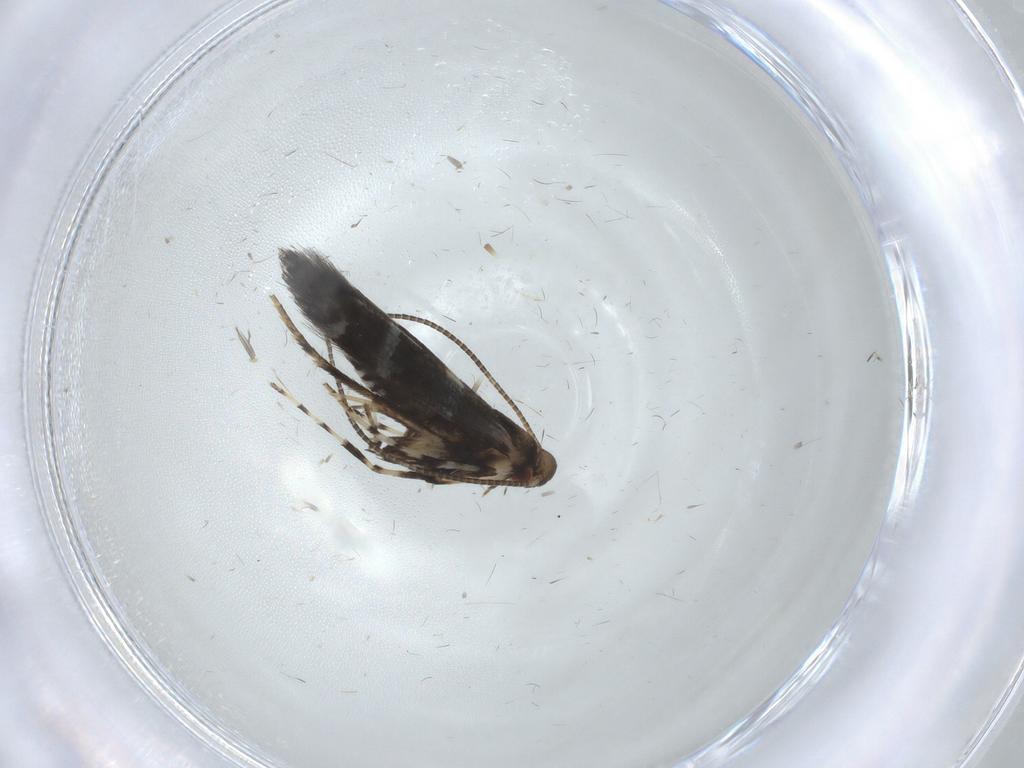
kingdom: Animalia
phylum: Arthropoda
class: Insecta
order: Lepidoptera
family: Gracillariidae
